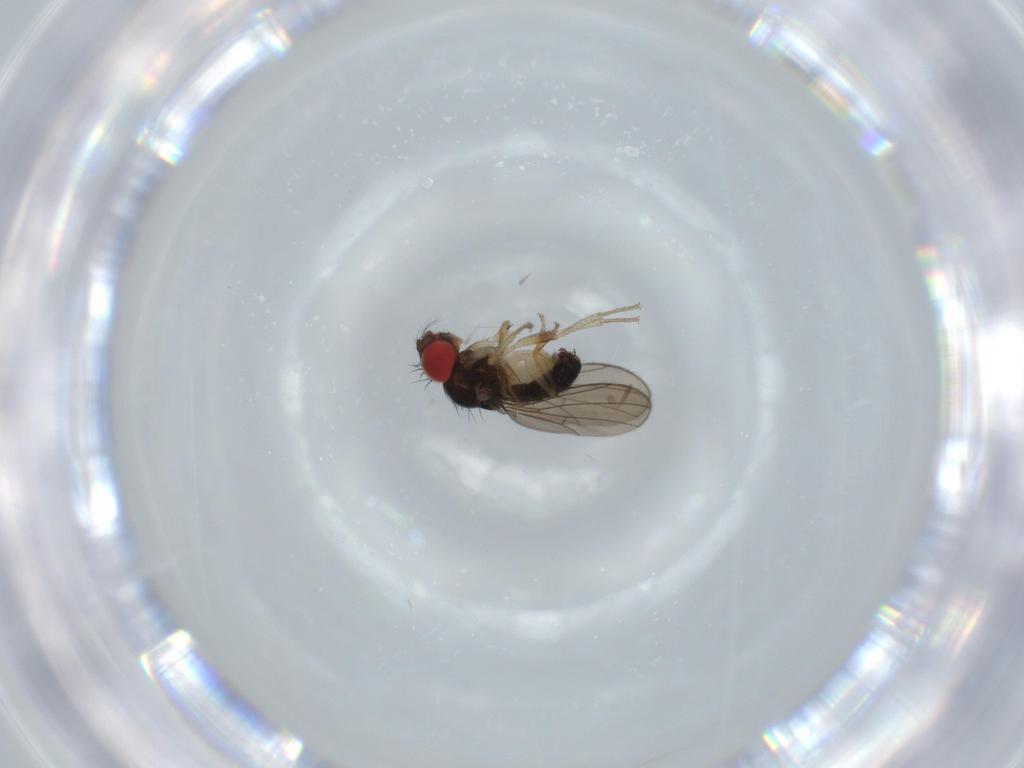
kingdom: Animalia
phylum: Arthropoda
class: Insecta
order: Diptera
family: Drosophilidae
